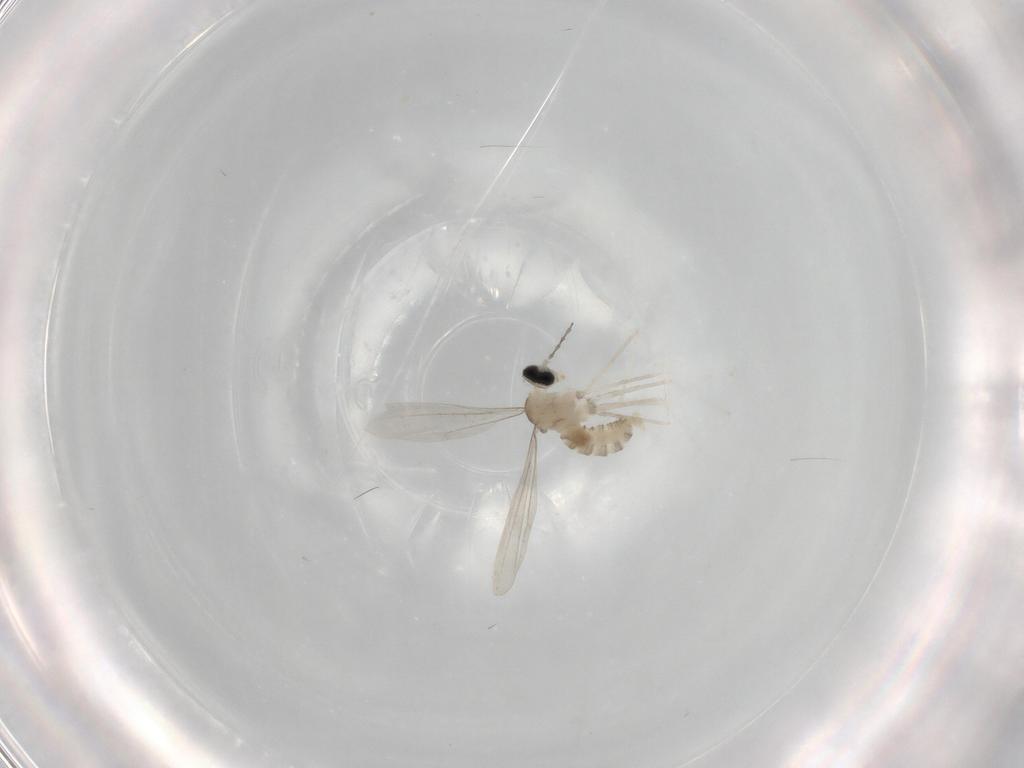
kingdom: Animalia
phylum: Arthropoda
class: Insecta
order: Diptera
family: Cecidomyiidae
